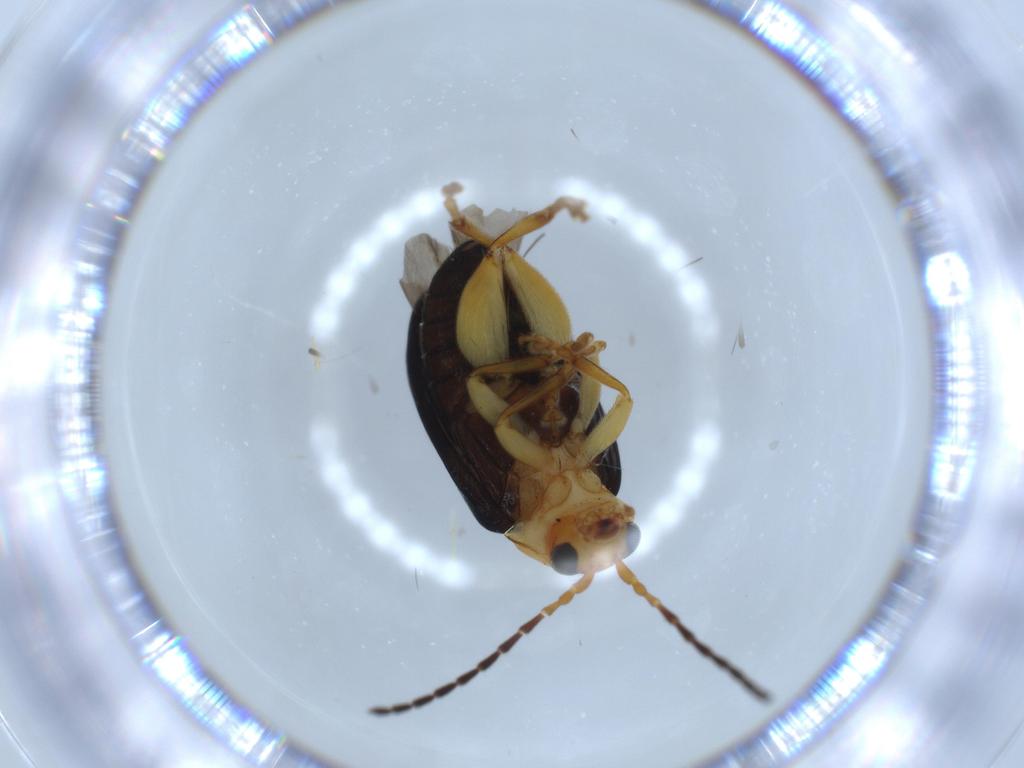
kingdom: Animalia
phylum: Arthropoda
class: Insecta
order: Coleoptera
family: Coccinellidae
